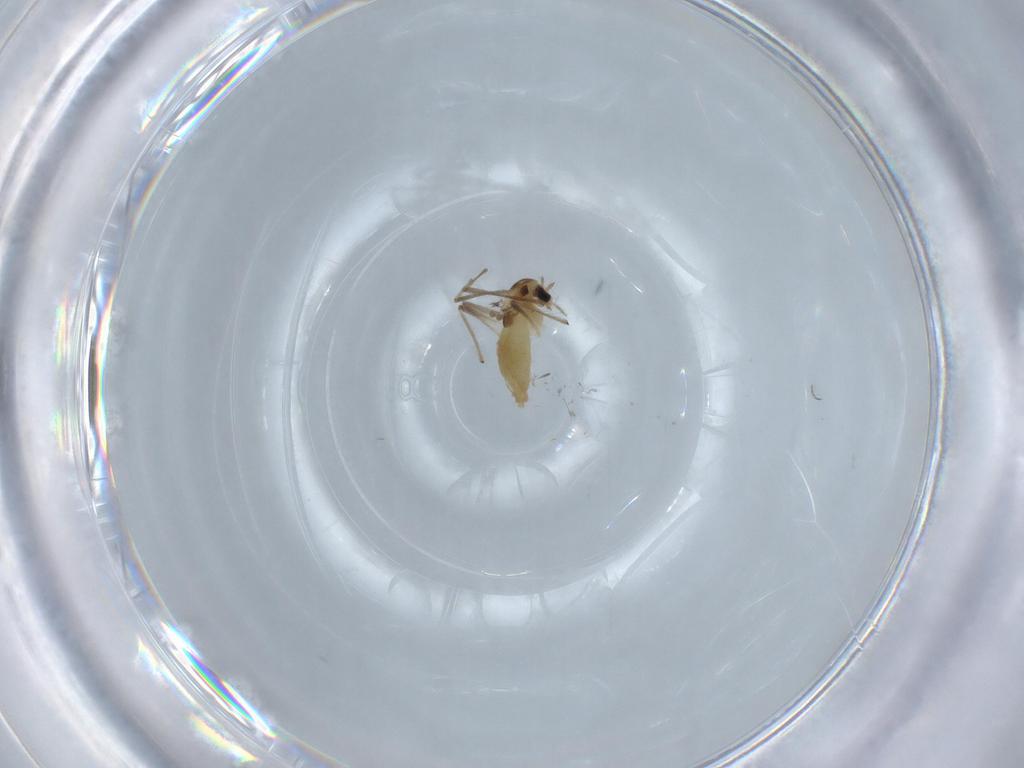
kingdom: Animalia
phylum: Arthropoda
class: Insecta
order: Diptera
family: Chironomidae
